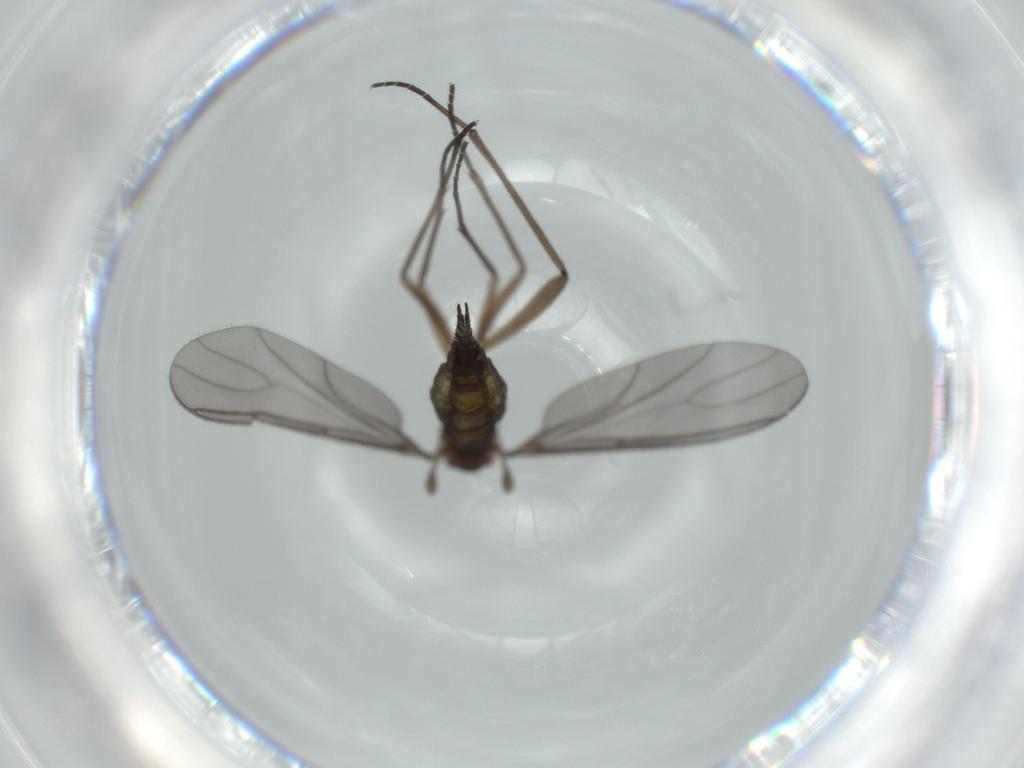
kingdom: Animalia
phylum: Arthropoda
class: Insecta
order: Diptera
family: Sciaridae
